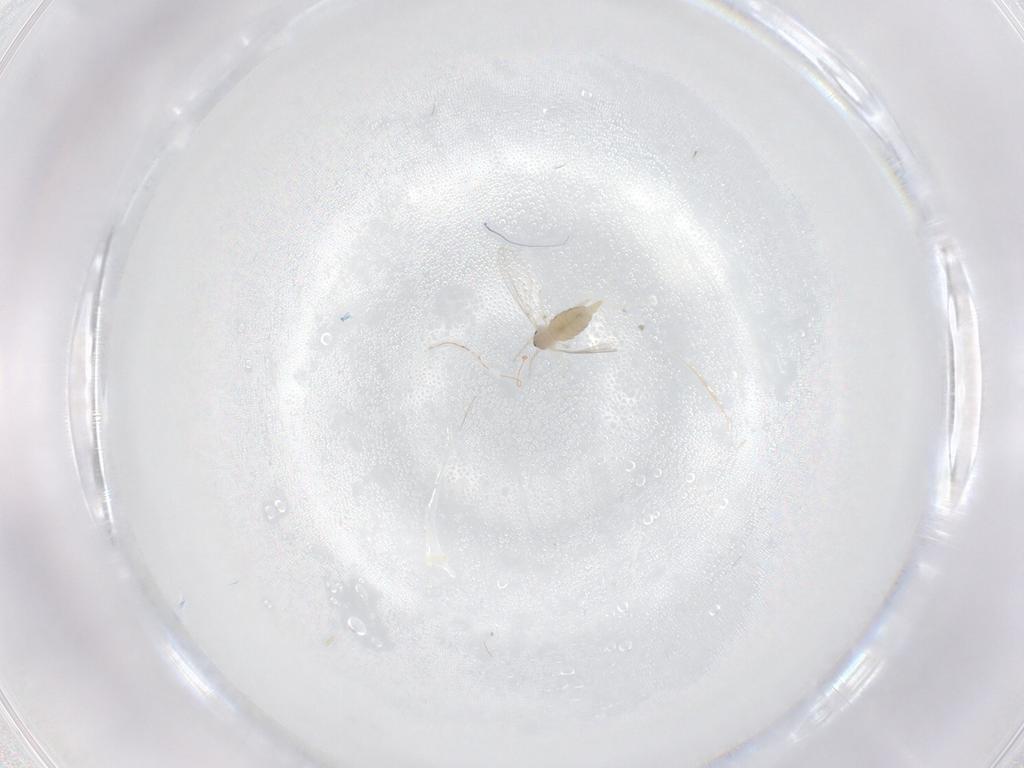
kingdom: Animalia
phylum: Arthropoda
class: Insecta
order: Diptera
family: Cecidomyiidae
